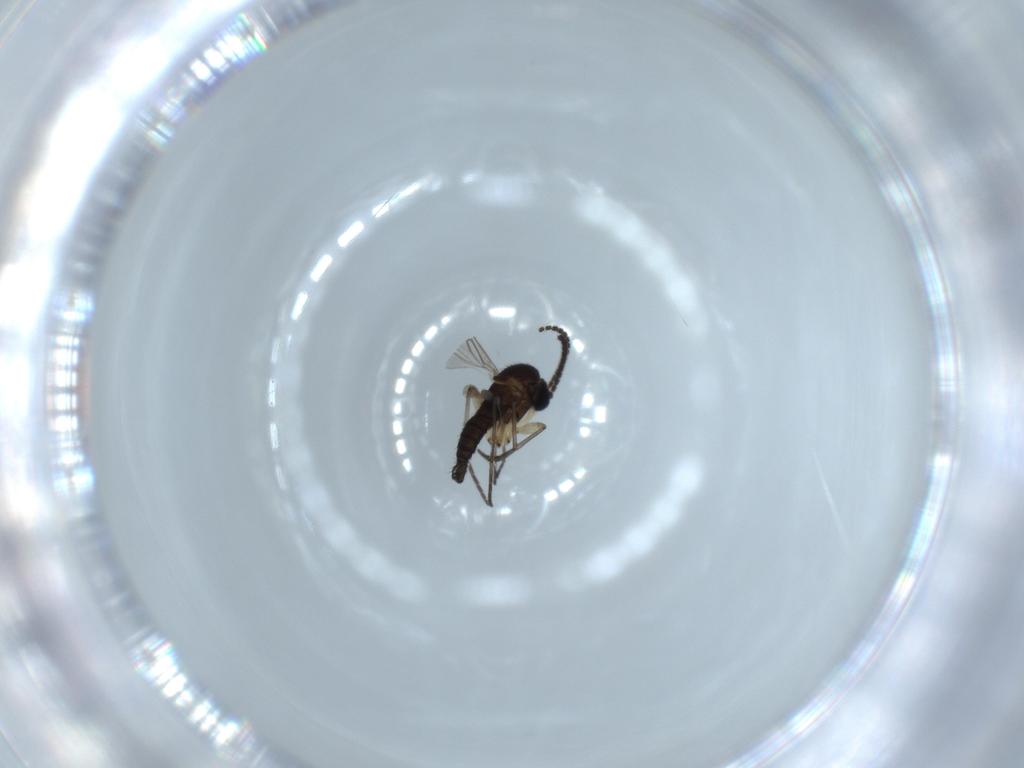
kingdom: Animalia
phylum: Arthropoda
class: Insecta
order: Diptera
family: Sciaridae
